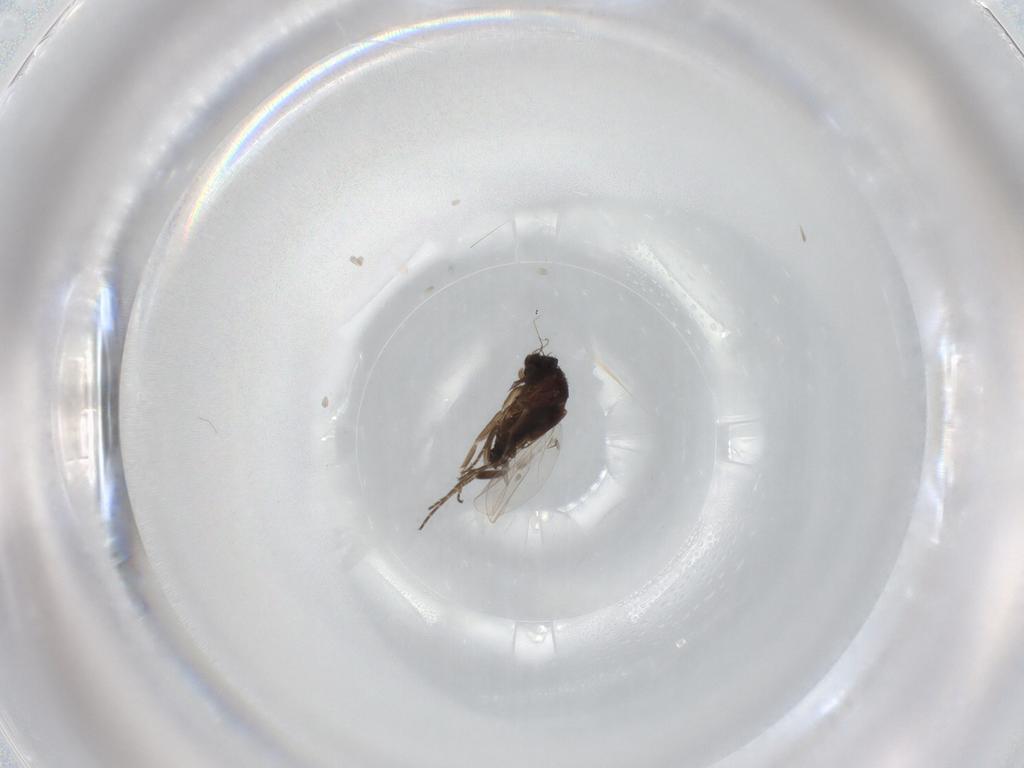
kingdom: Animalia
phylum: Arthropoda
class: Insecta
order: Diptera
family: Phoridae
